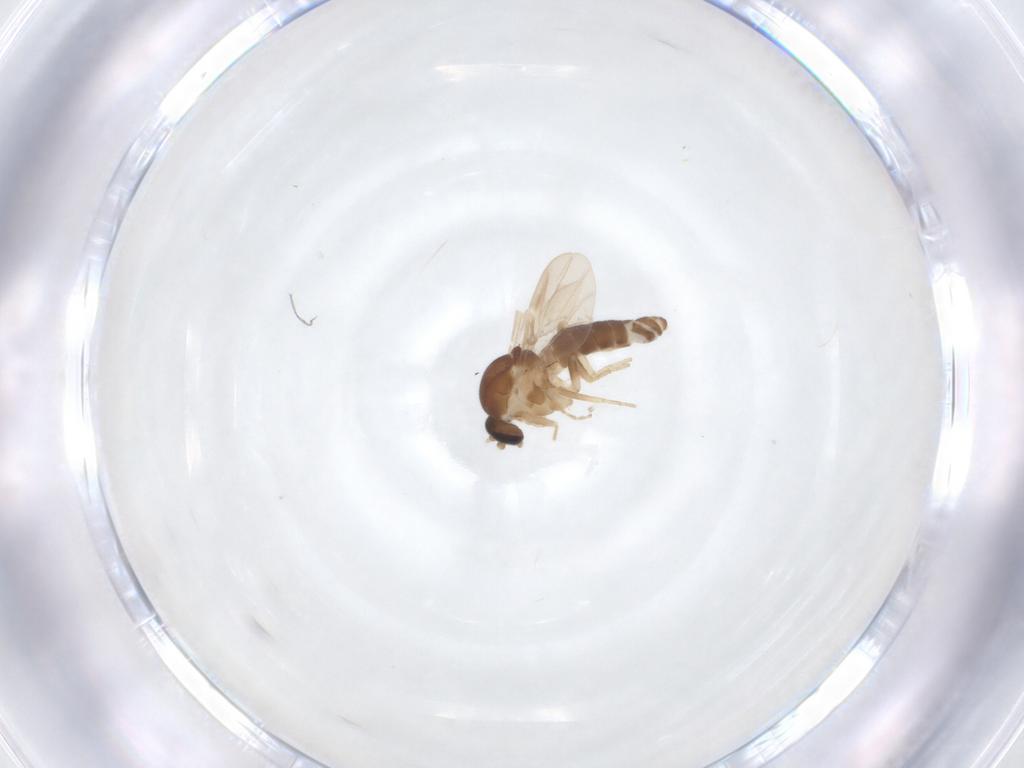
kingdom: Animalia
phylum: Arthropoda
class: Insecta
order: Diptera
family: Ceratopogonidae
